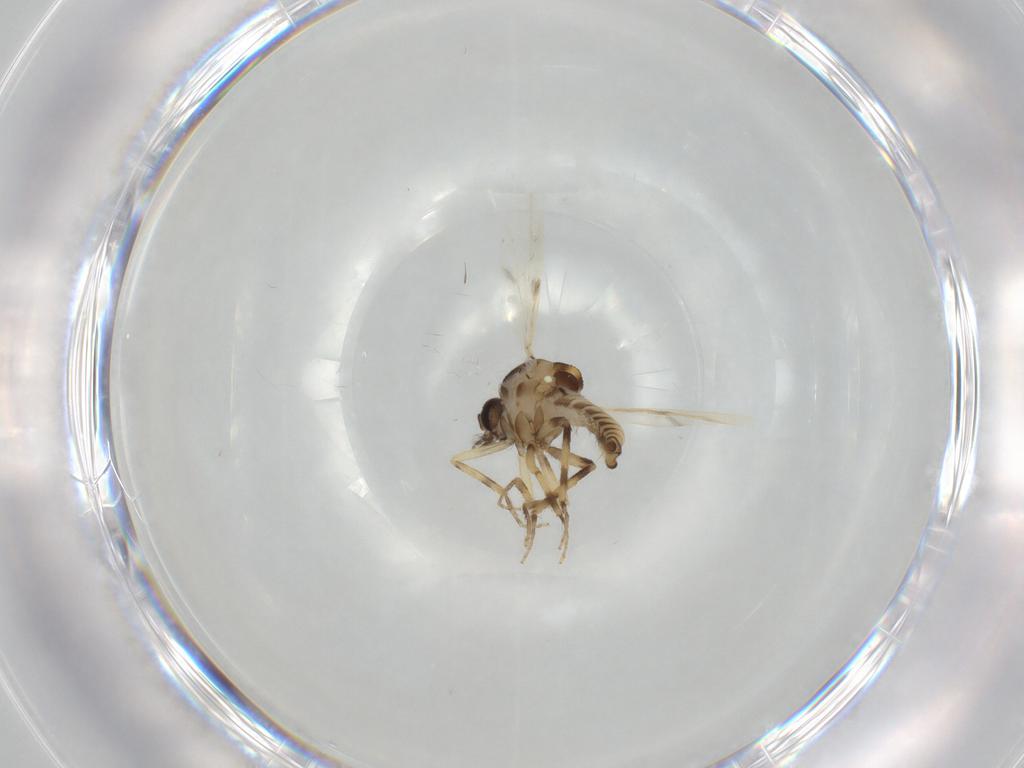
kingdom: Animalia
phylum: Arthropoda
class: Insecta
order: Diptera
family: Ceratopogonidae
